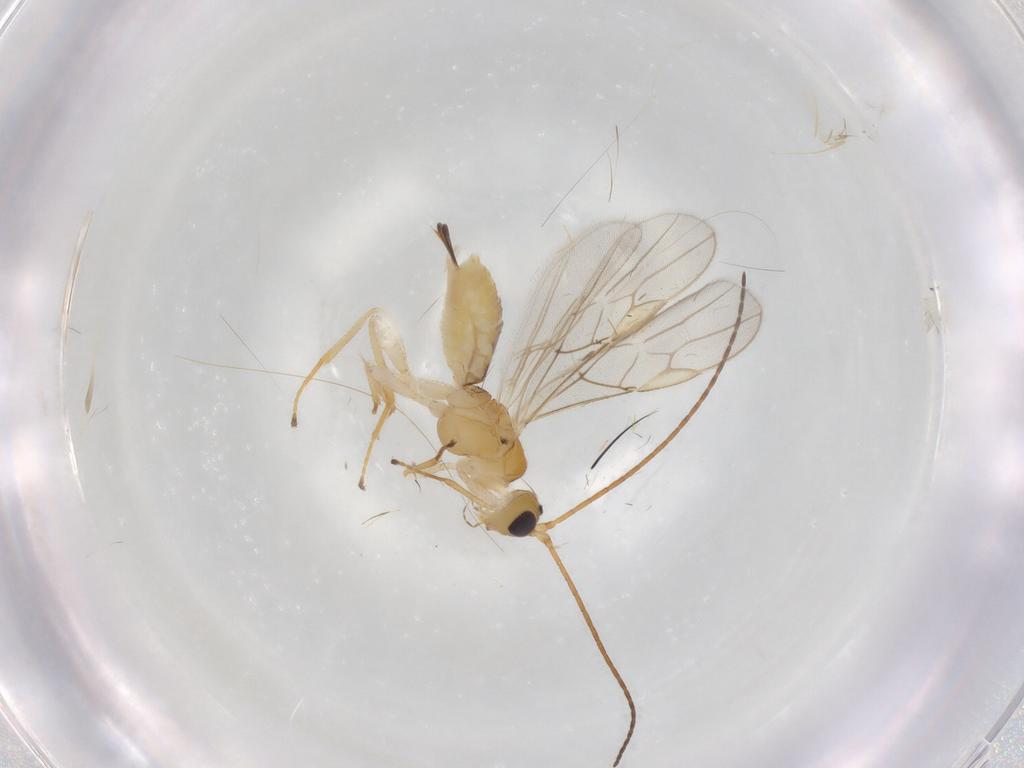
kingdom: Animalia
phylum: Arthropoda
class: Insecta
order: Hymenoptera
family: Braconidae
